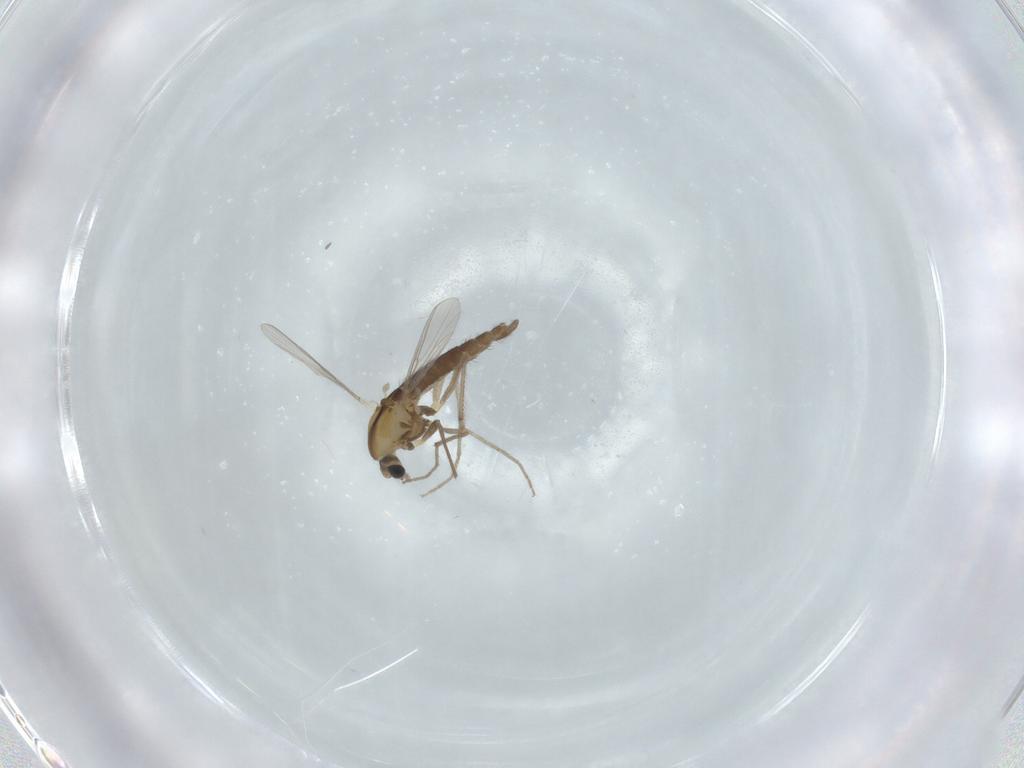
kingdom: Animalia
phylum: Arthropoda
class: Insecta
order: Diptera
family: Chironomidae
